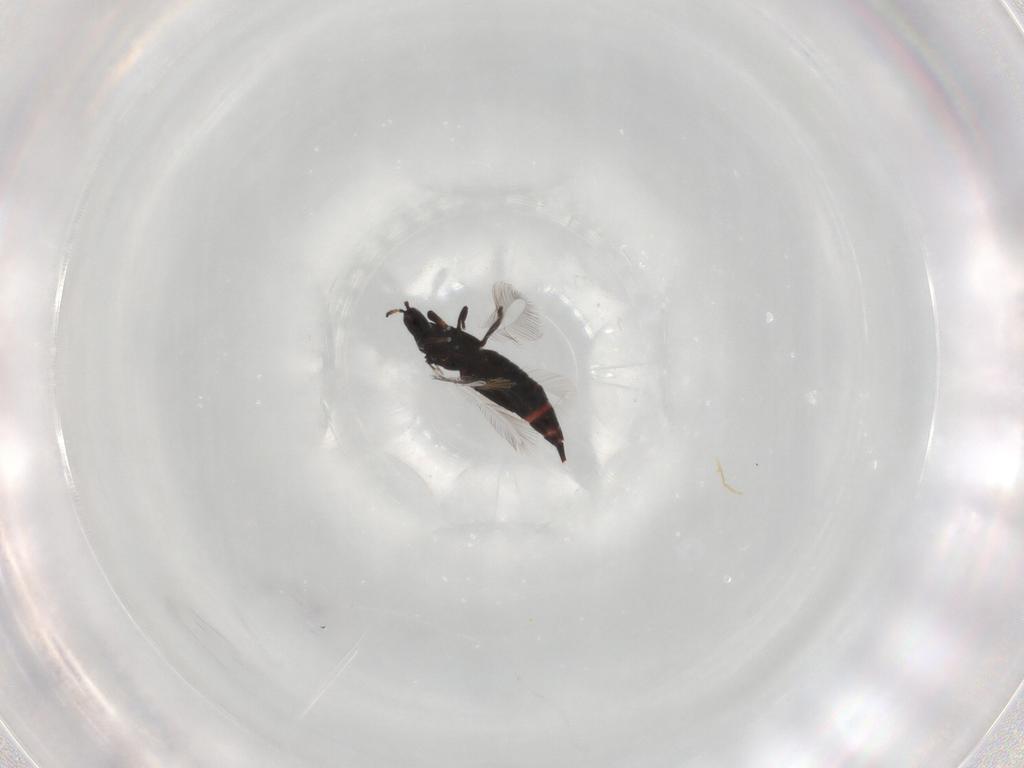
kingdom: Animalia
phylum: Arthropoda
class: Insecta
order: Thysanoptera
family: Phlaeothripidae
